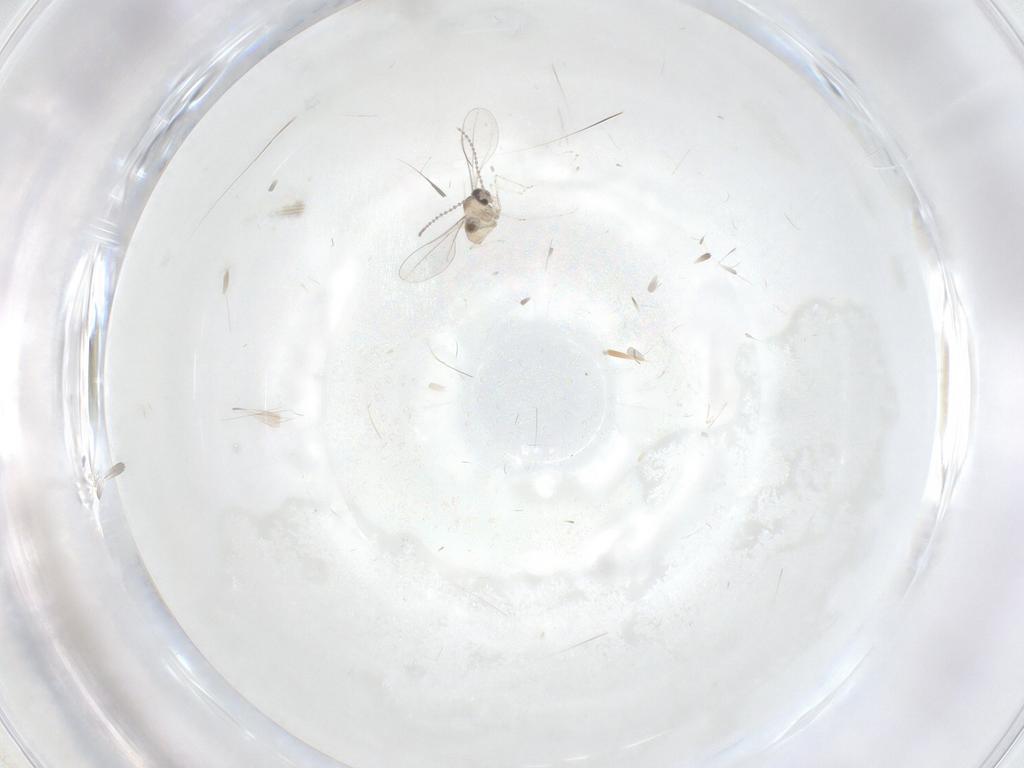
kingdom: Animalia
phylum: Arthropoda
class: Insecta
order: Diptera
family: Cecidomyiidae
